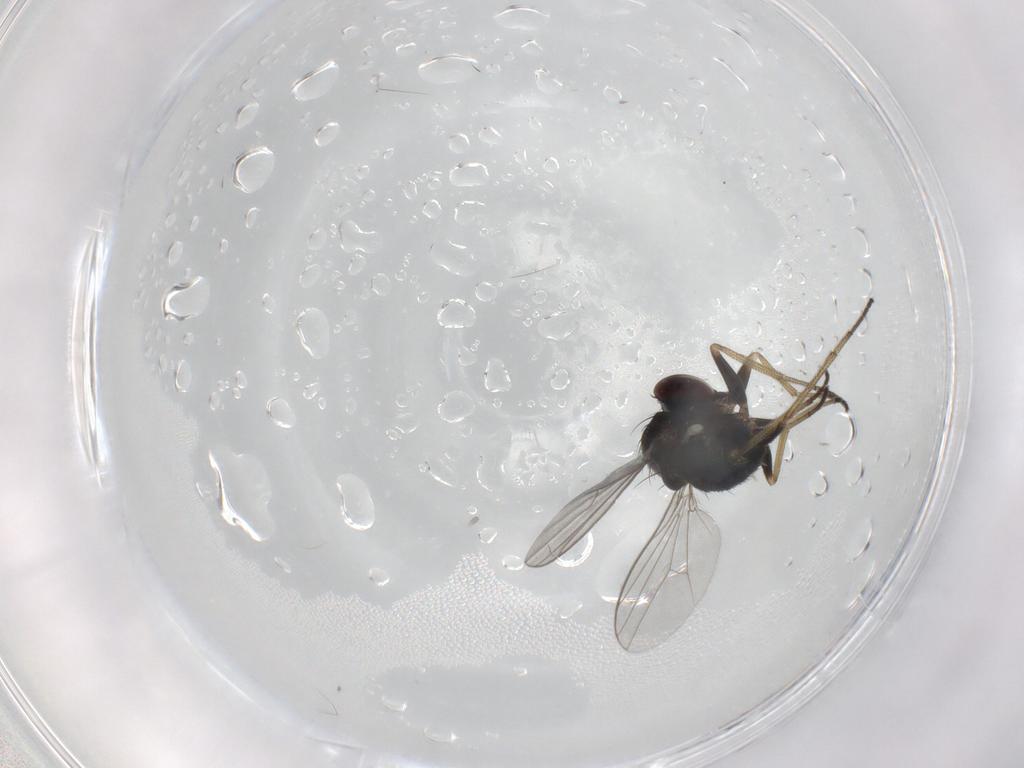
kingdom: Animalia
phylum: Arthropoda
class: Insecta
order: Diptera
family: Dolichopodidae
